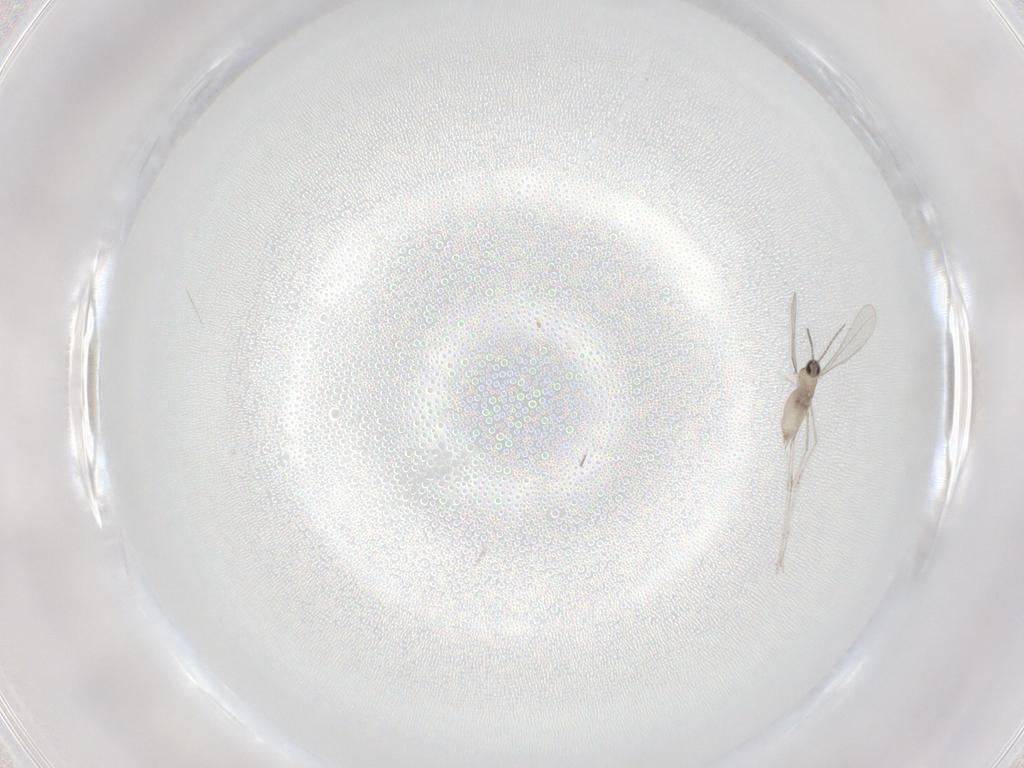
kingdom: Animalia
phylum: Arthropoda
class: Insecta
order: Diptera
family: Cecidomyiidae
